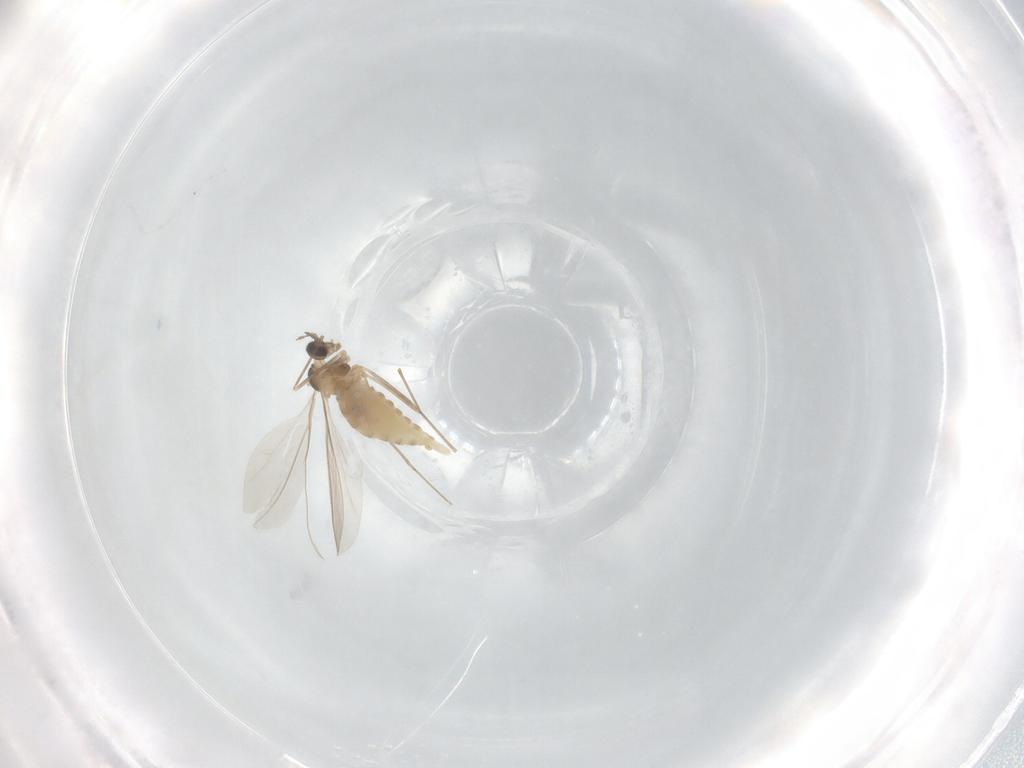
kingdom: Animalia
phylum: Arthropoda
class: Insecta
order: Diptera
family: Cecidomyiidae
